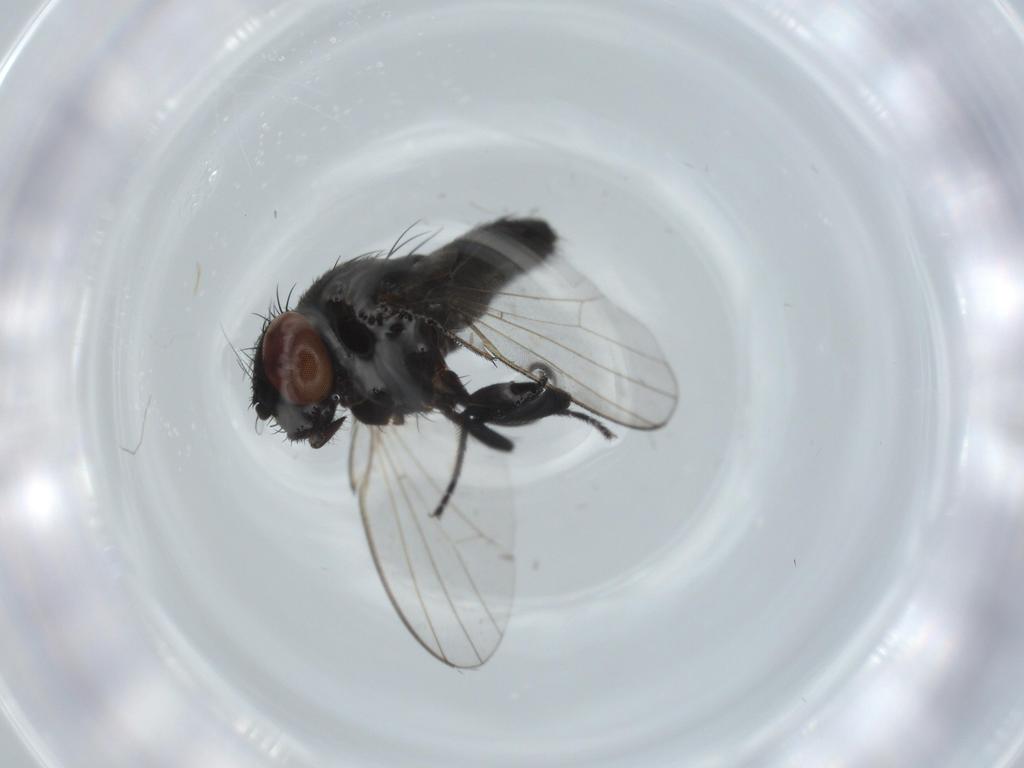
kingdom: Animalia
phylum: Arthropoda
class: Insecta
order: Diptera
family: Milichiidae
